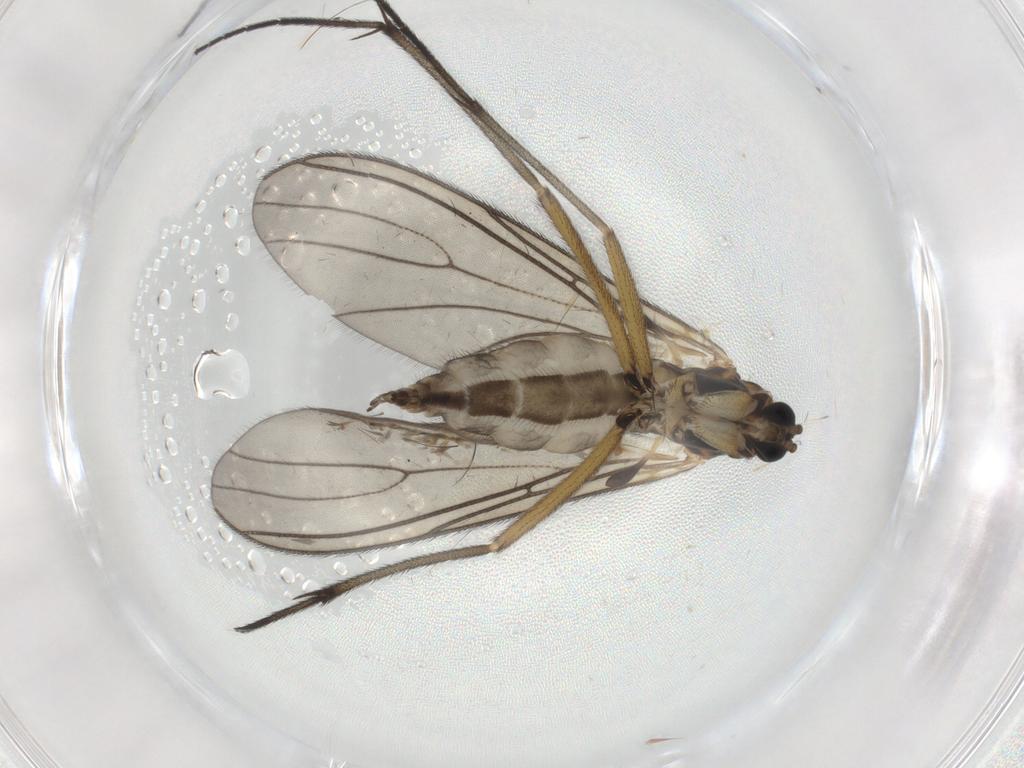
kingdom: Animalia
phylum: Arthropoda
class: Insecta
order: Diptera
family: Sciaridae
